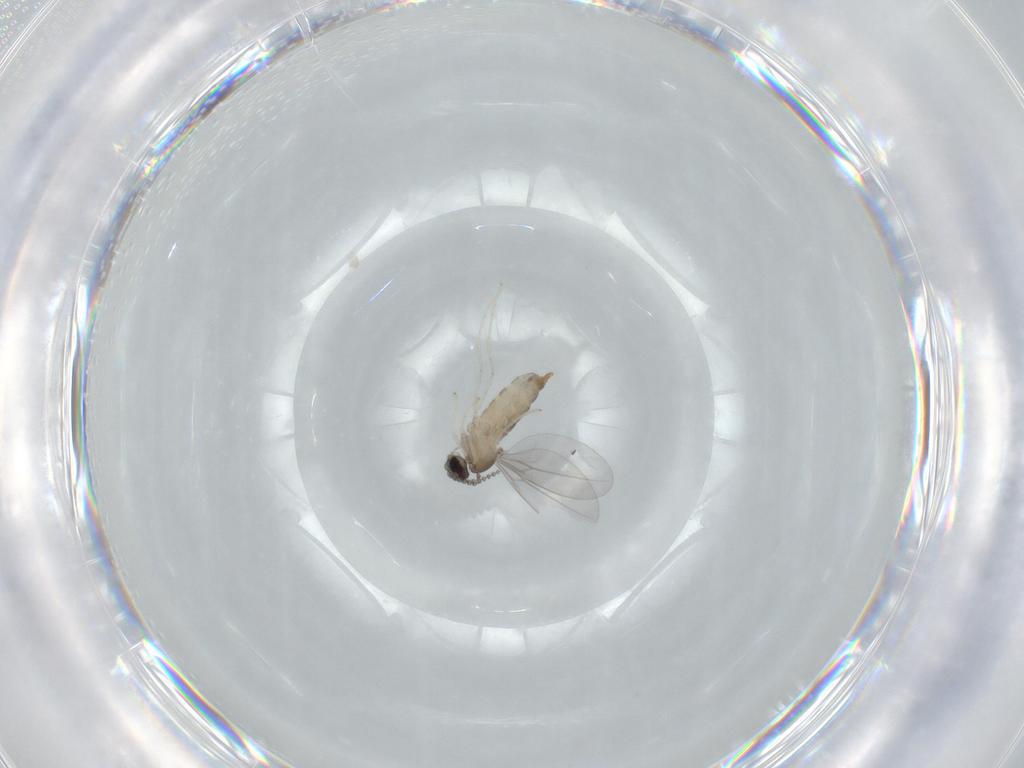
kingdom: Animalia
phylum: Arthropoda
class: Insecta
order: Diptera
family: Cecidomyiidae
